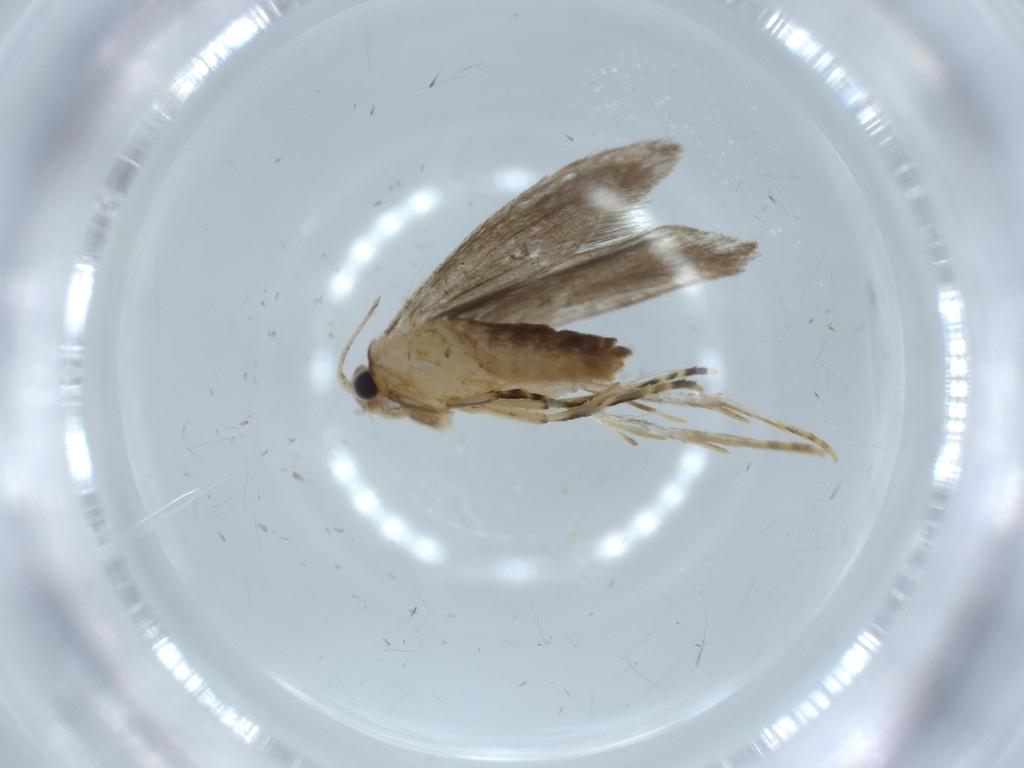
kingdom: Animalia
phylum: Arthropoda
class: Insecta
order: Lepidoptera
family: Tineidae
